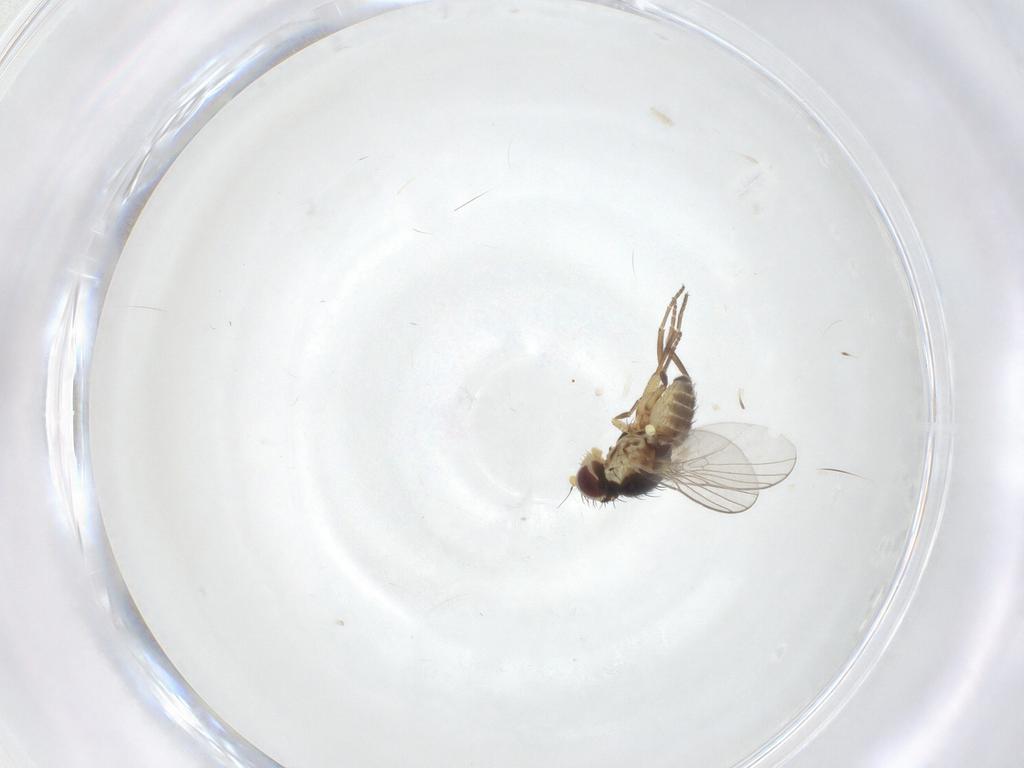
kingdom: Animalia
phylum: Arthropoda
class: Insecta
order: Diptera
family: Agromyzidae
